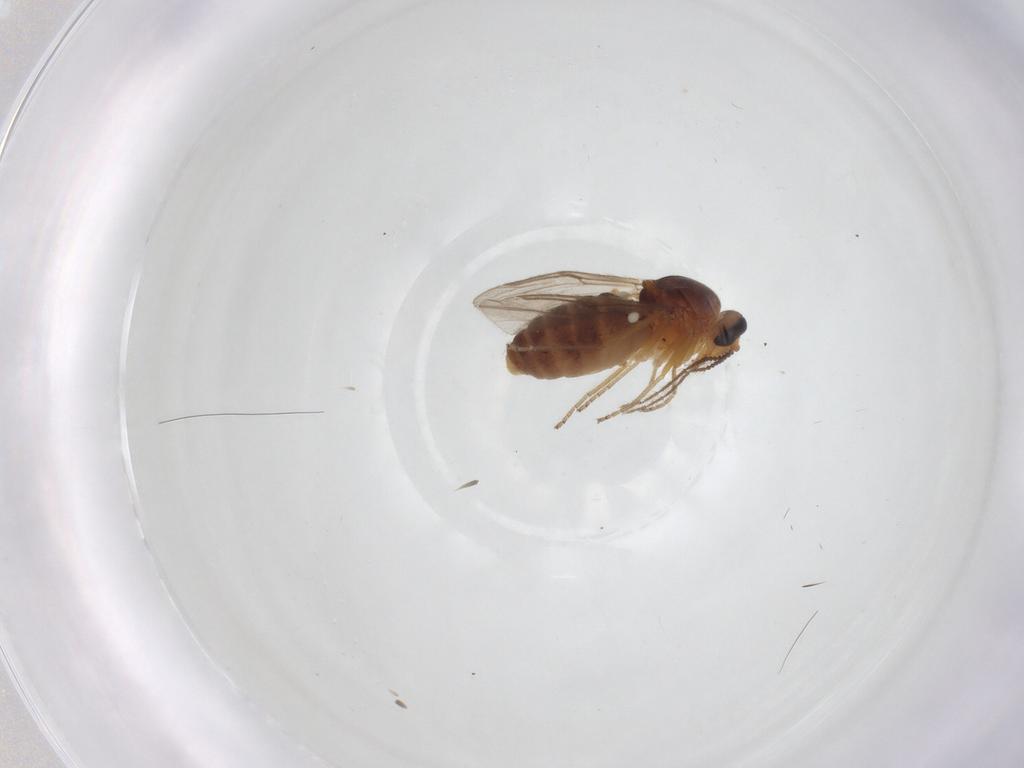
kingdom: Animalia
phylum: Arthropoda
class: Insecta
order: Diptera
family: Ceratopogonidae
